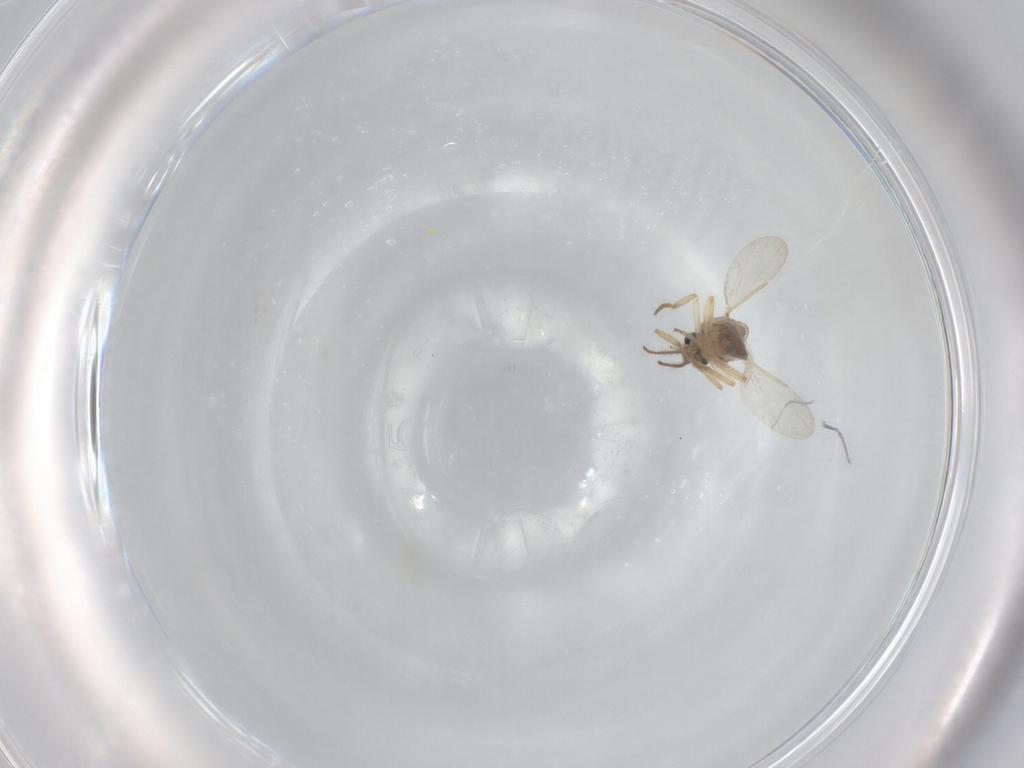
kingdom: Animalia
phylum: Arthropoda
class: Insecta
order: Diptera
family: Ceratopogonidae
